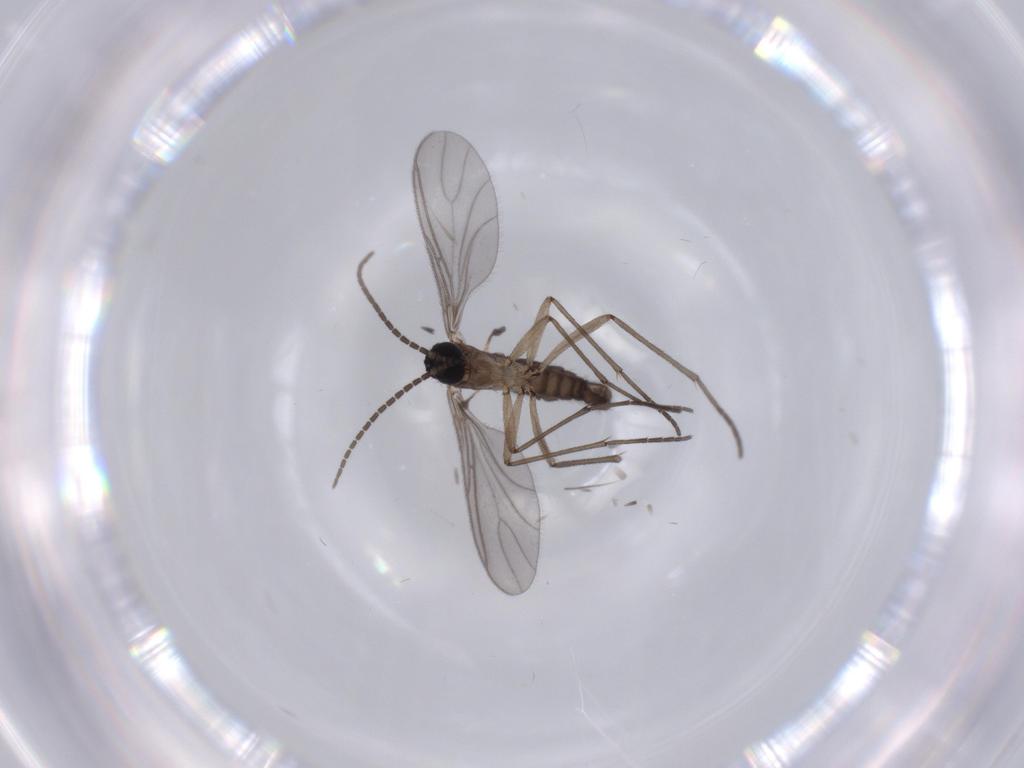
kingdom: Animalia
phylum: Arthropoda
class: Insecta
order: Diptera
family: Sciaridae
